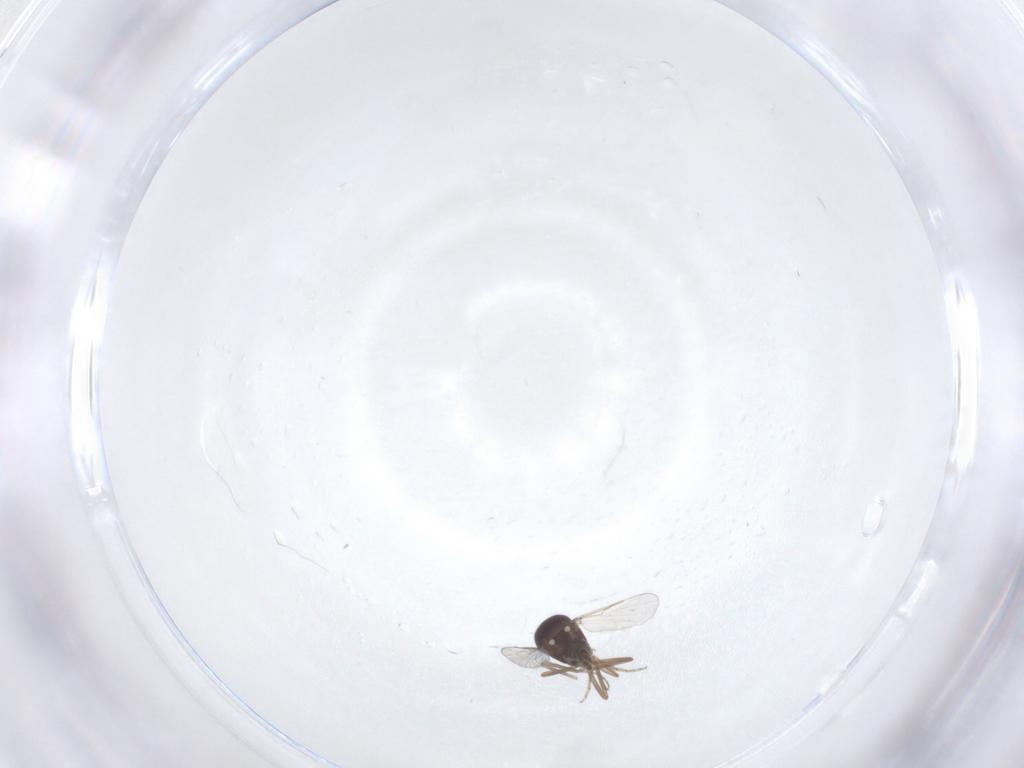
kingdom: Animalia
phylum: Arthropoda
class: Insecta
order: Diptera
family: Ceratopogonidae
